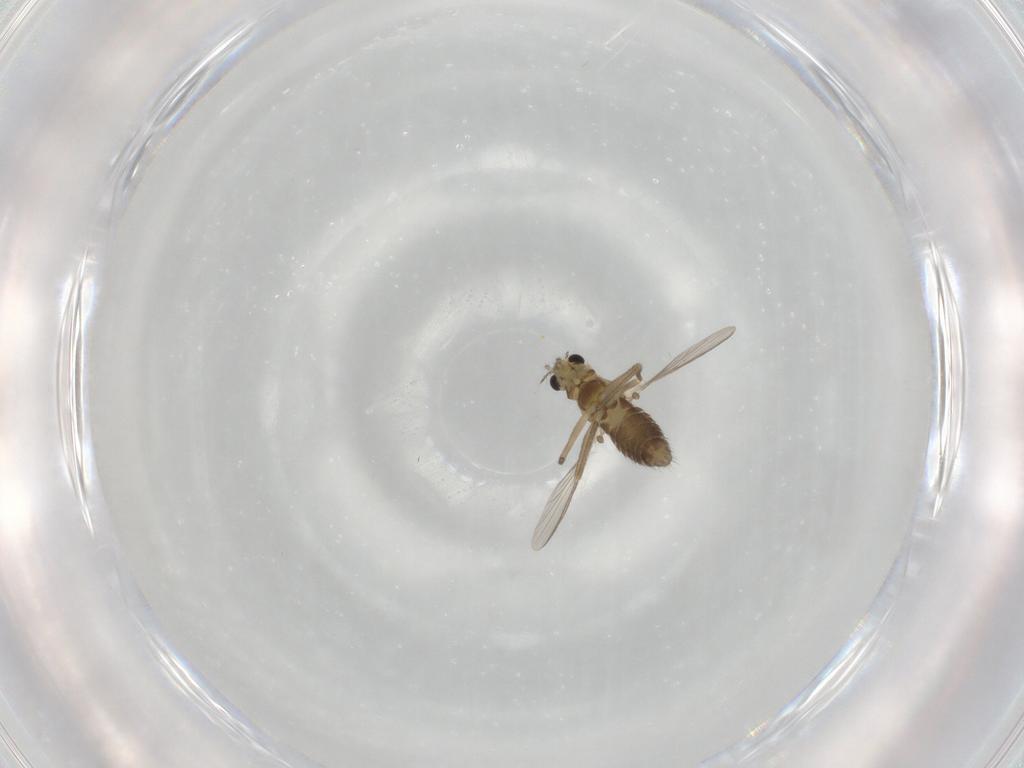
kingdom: Animalia
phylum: Arthropoda
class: Insecta
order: Diptera
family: Chironomidae
